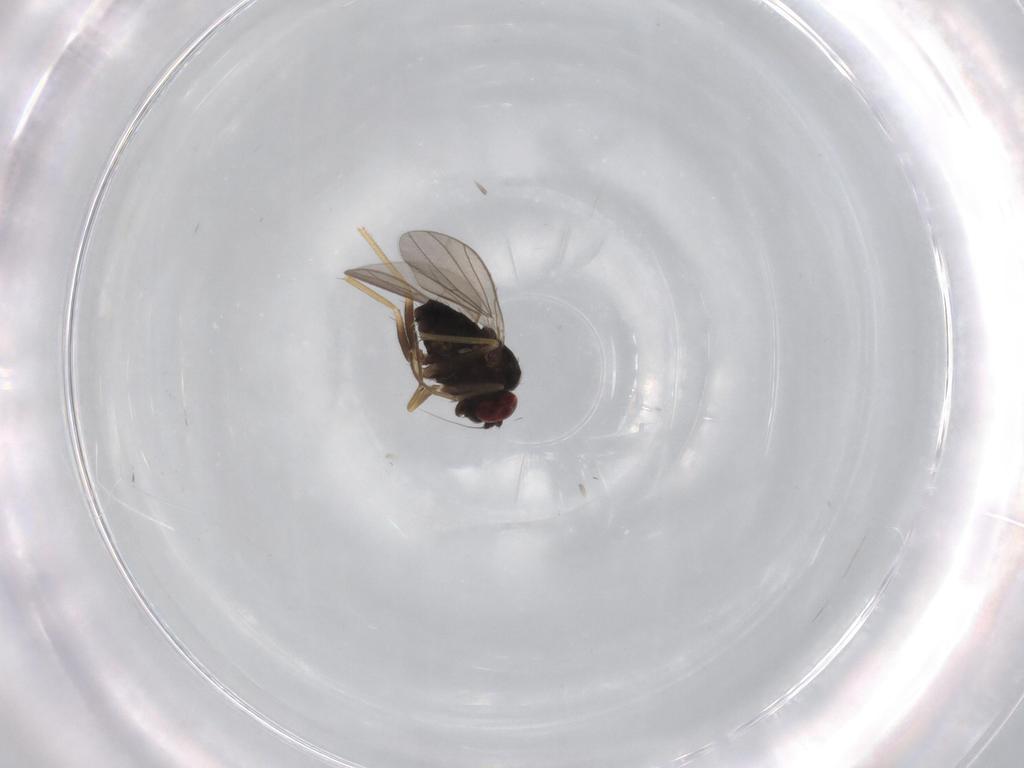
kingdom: Animalia
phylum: Arthropoda
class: Insecta
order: Diptera
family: Dolichopodidae
